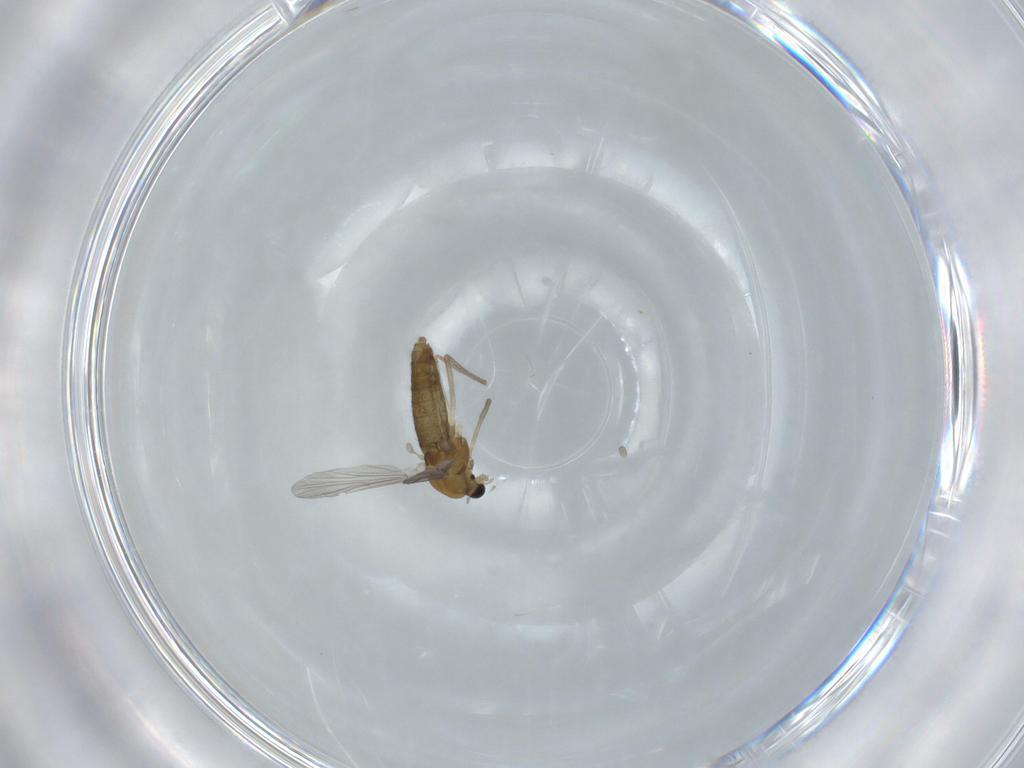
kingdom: Animalia
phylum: Arthropoda
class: Insecta
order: Diptera
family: Chironomidae
